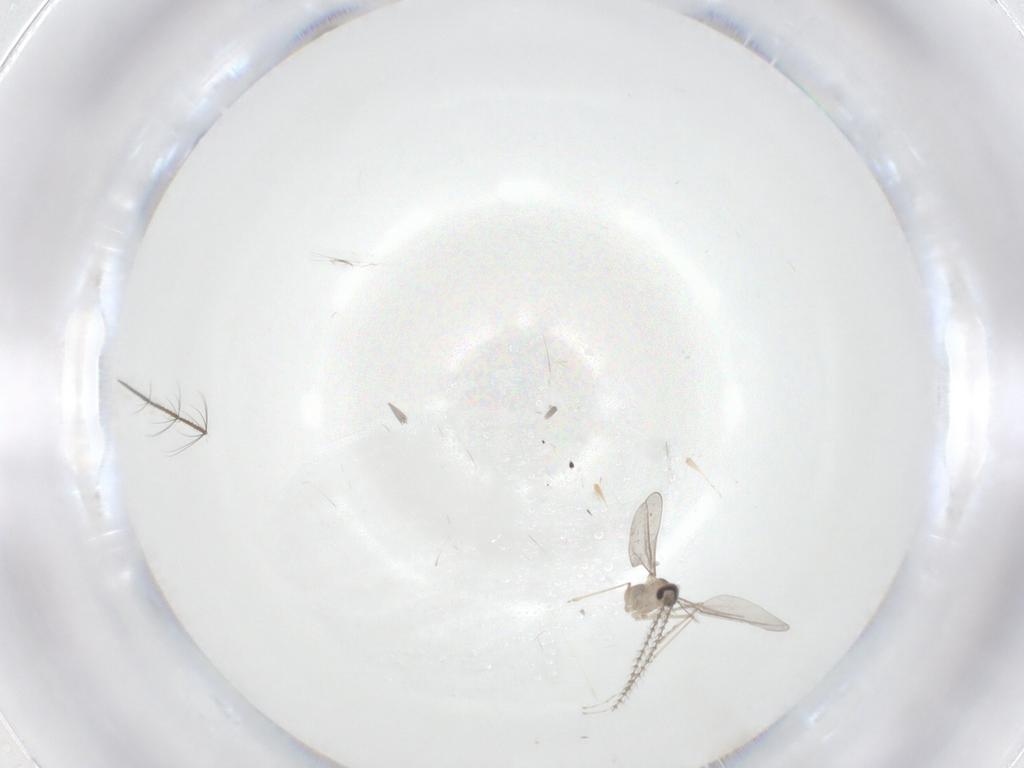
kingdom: Animalia
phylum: Arthropoda
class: Insecta
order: Diptera
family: Cecidomyiidae
